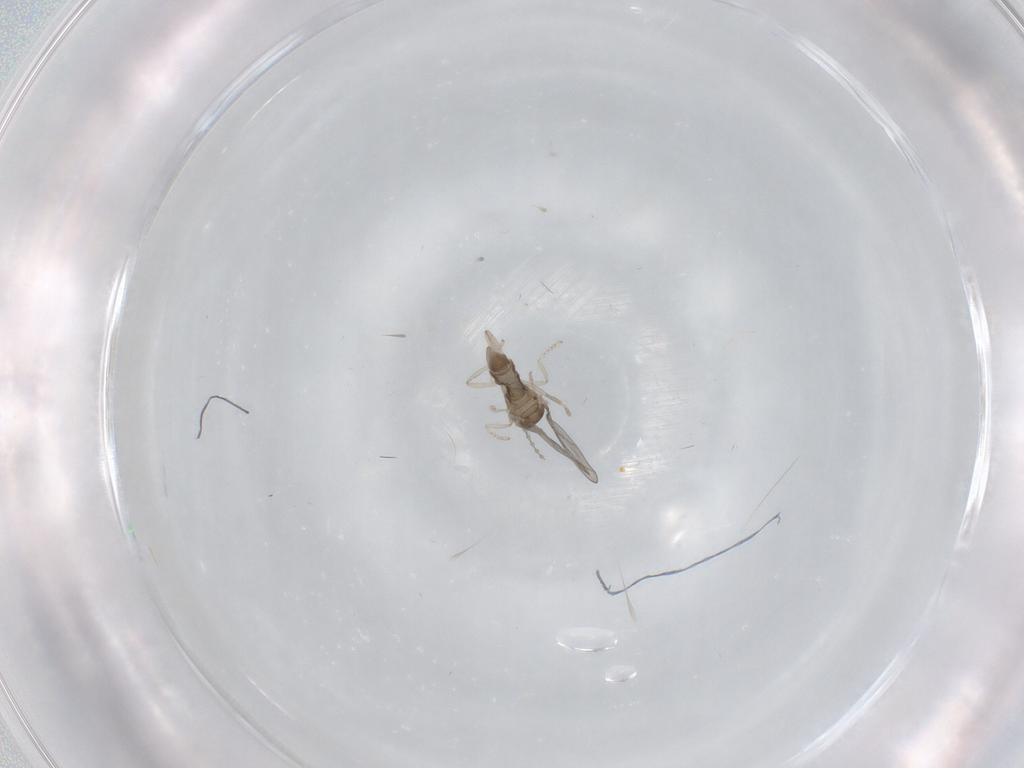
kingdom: Animalia
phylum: Arthropoda
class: Insecta
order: Diptera
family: Cecidomyiidae
